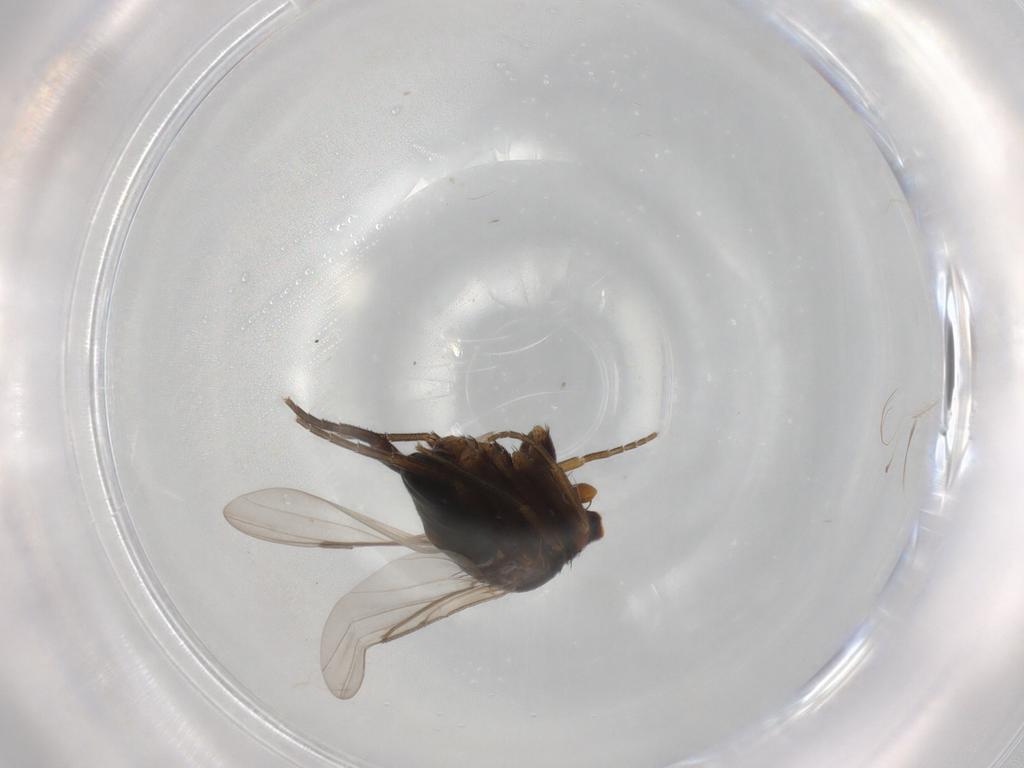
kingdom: Animalia
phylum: Arthropoda
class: Insecta
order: Diptera
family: Phoridae
